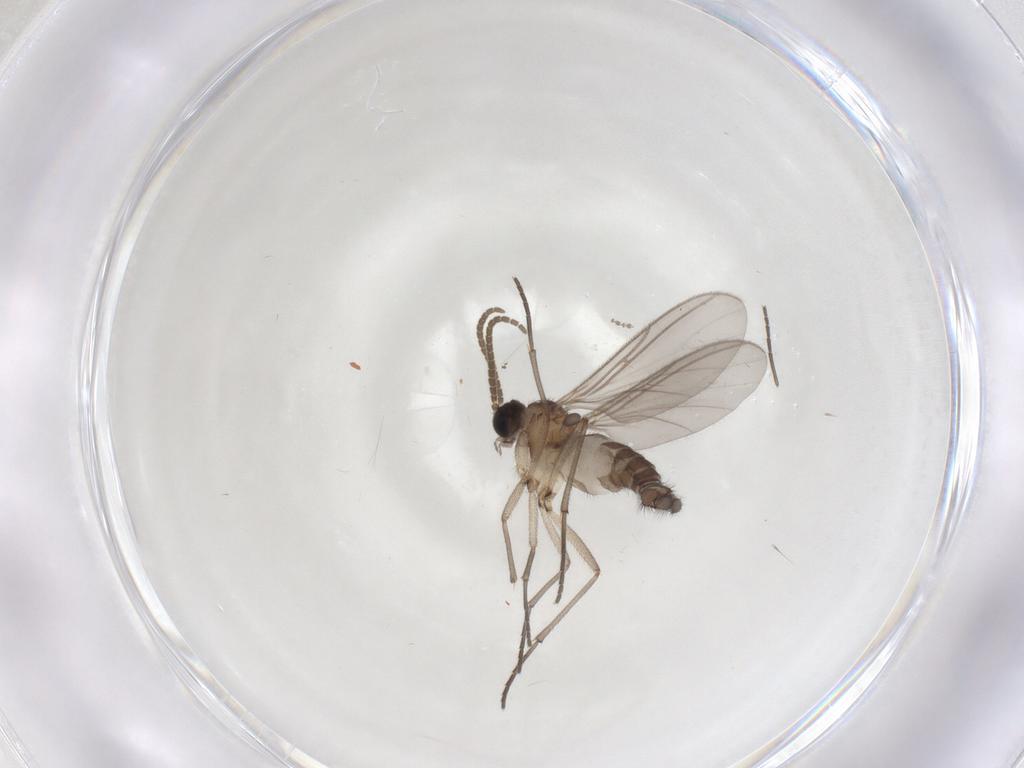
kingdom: Animalia
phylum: Arthropoda
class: Insecta
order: Diptera
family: Cecidomyiidae
